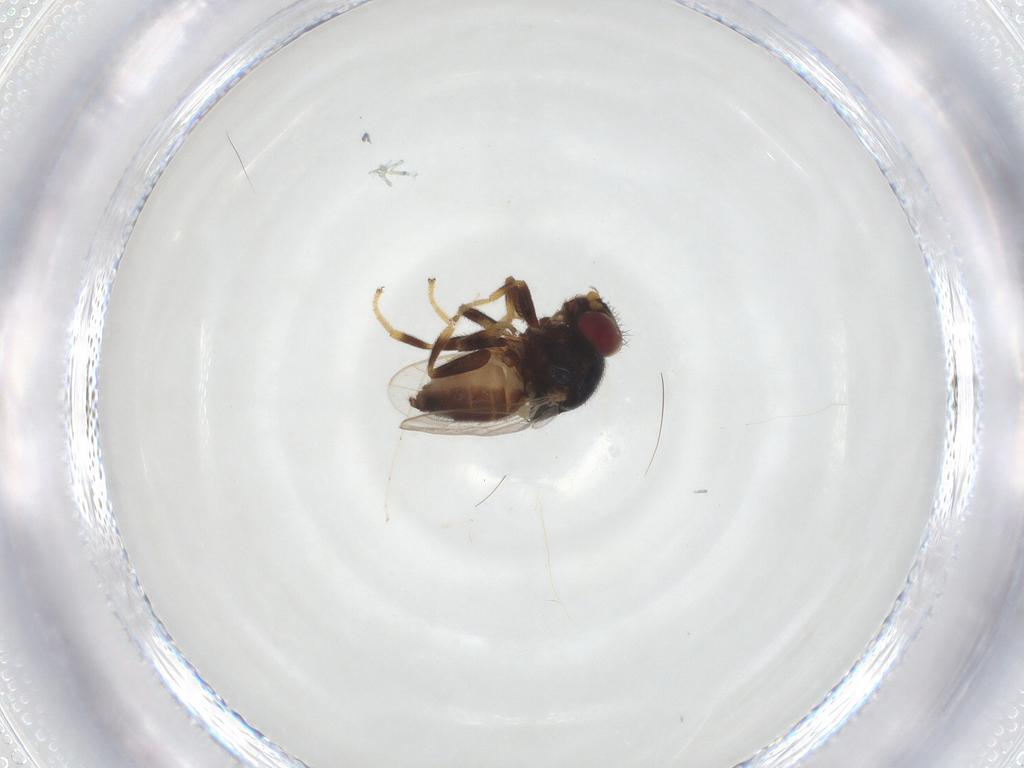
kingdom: Animalia
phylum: Arthropoda
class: Insecta
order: Diptera
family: Chloropidae
